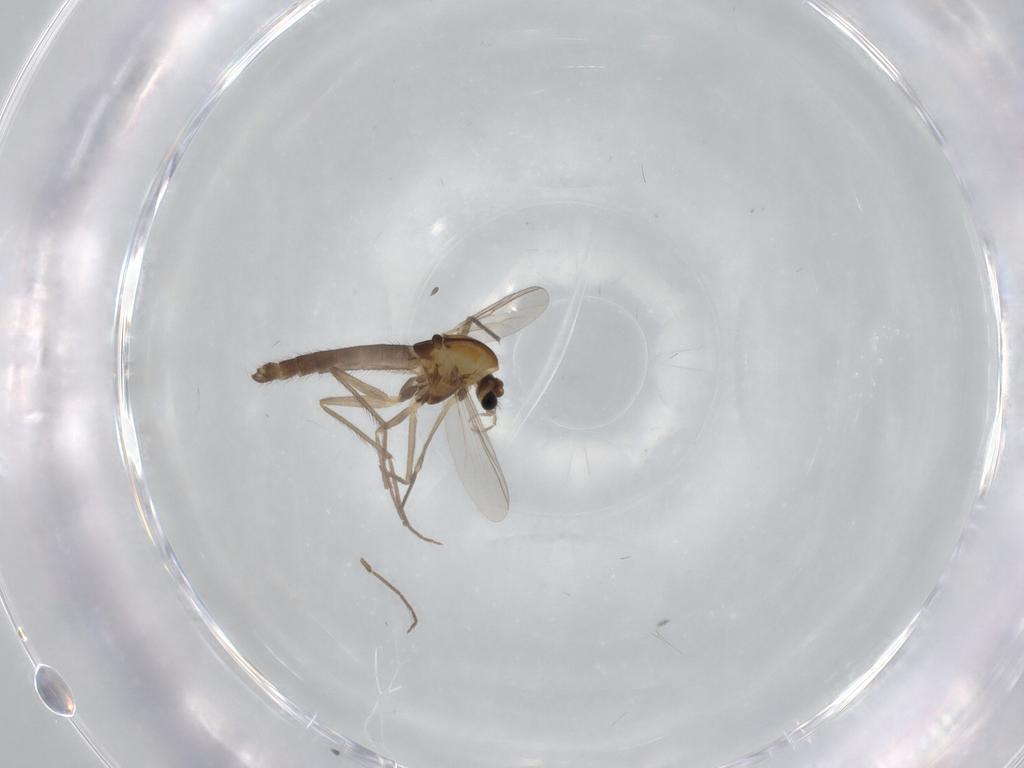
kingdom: Animalia
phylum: Arthropoda
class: Insecta
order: Diptera
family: Chironomidae
